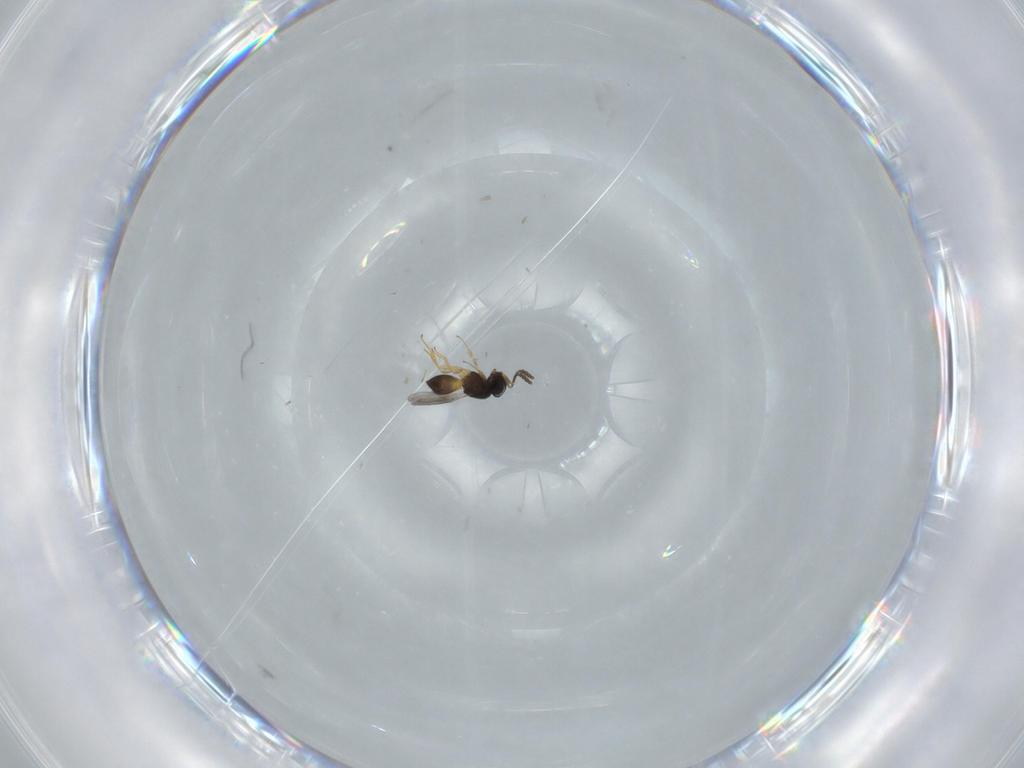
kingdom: Animalia
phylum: Arthropoda
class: Insecta
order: Hymenoptera
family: Scelionidae
